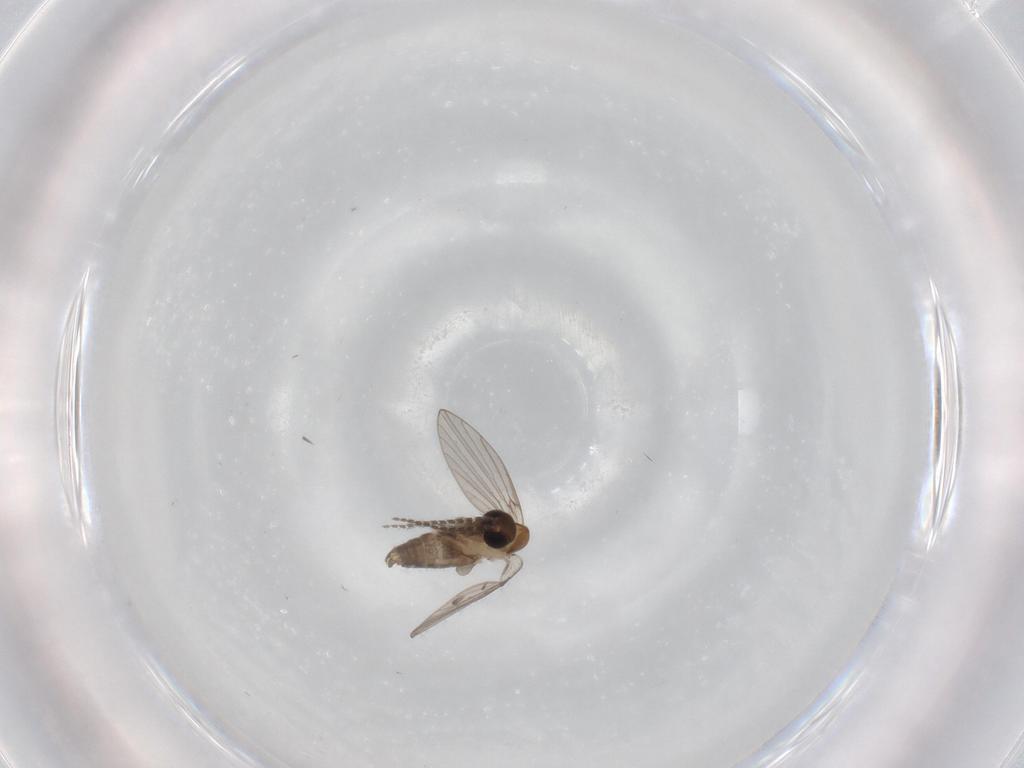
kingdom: Animalia
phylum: Arthropoda
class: Insecta
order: Diptera
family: Psychodidae
